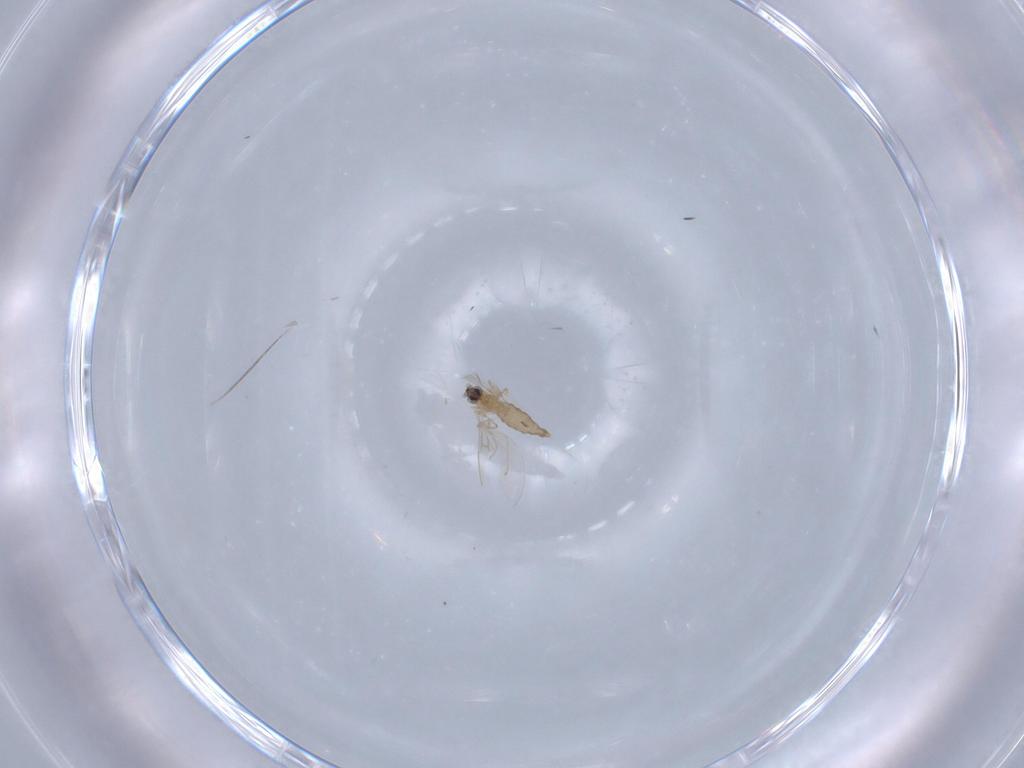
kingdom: Animalia
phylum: Arthropoda
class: Insecta
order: Diptera
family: Cecidomyiidae
